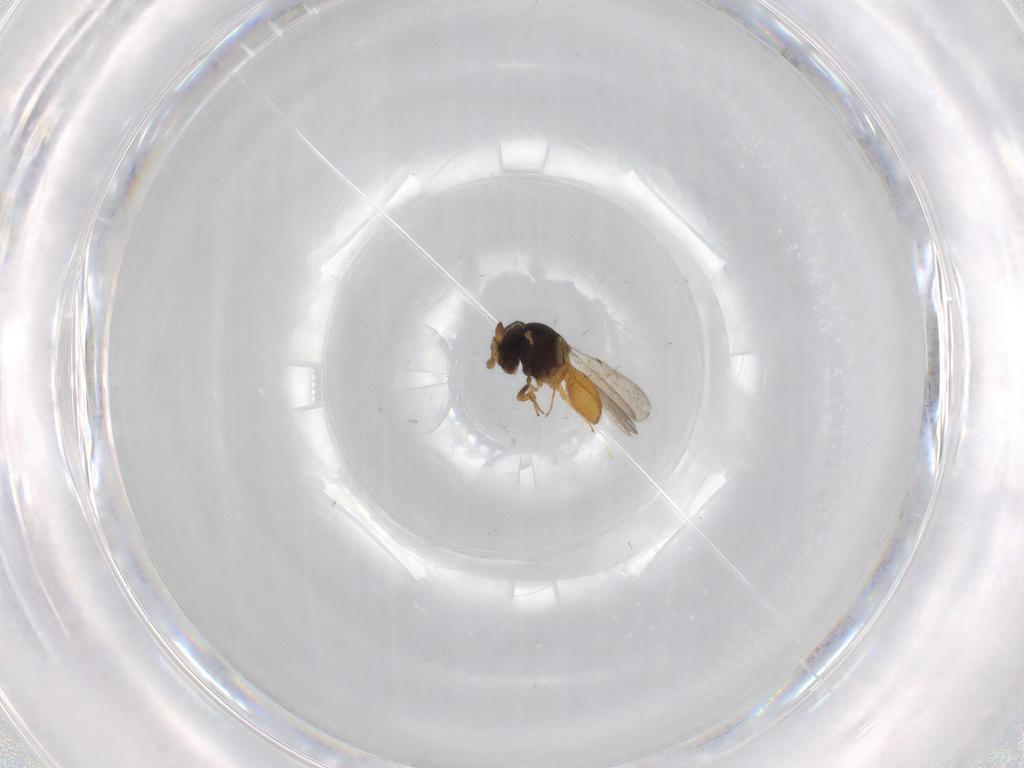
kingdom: Animalia
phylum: Arthropoda
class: Insecta
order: Hymenoptera
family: Scelionidae
